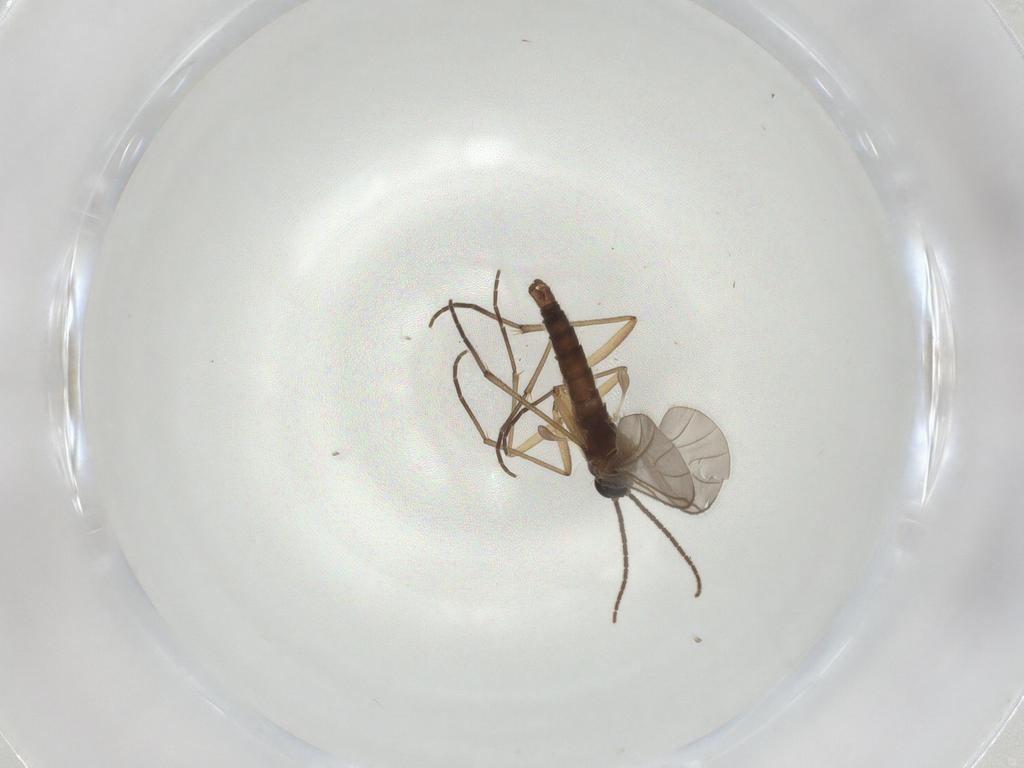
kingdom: Animalia
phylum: Arthropoda
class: Insecta
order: Diptera
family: Sciaridae
